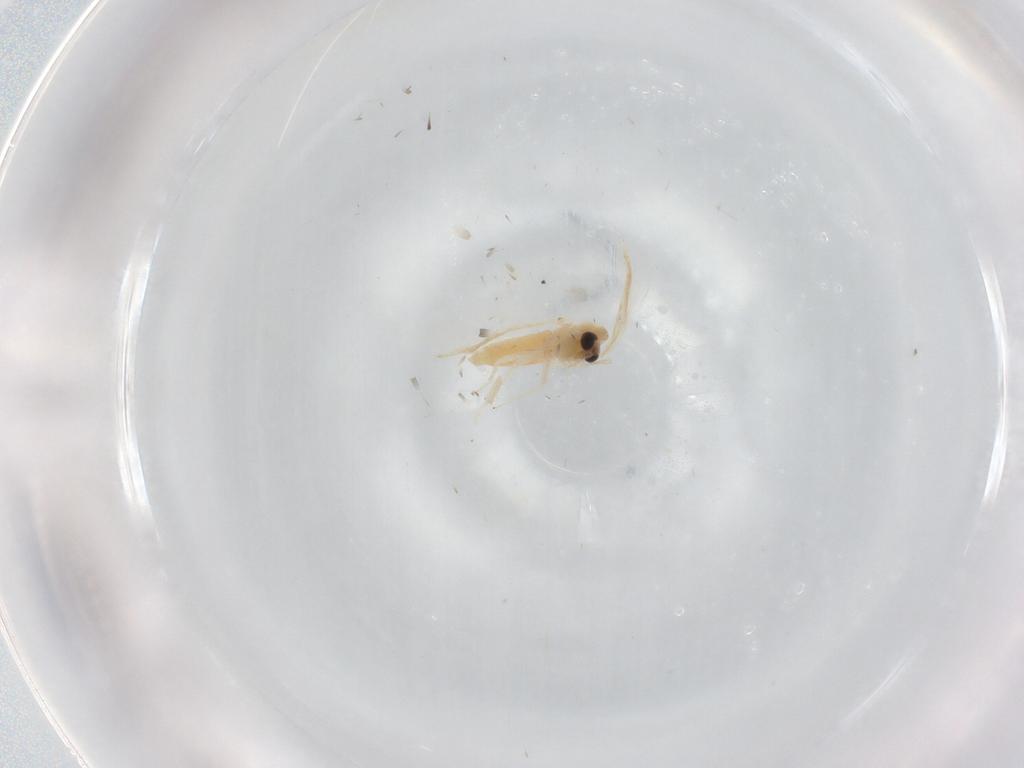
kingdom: Animalia
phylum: Arthropoda
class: Insecta
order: Diptera
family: Chironomidae
